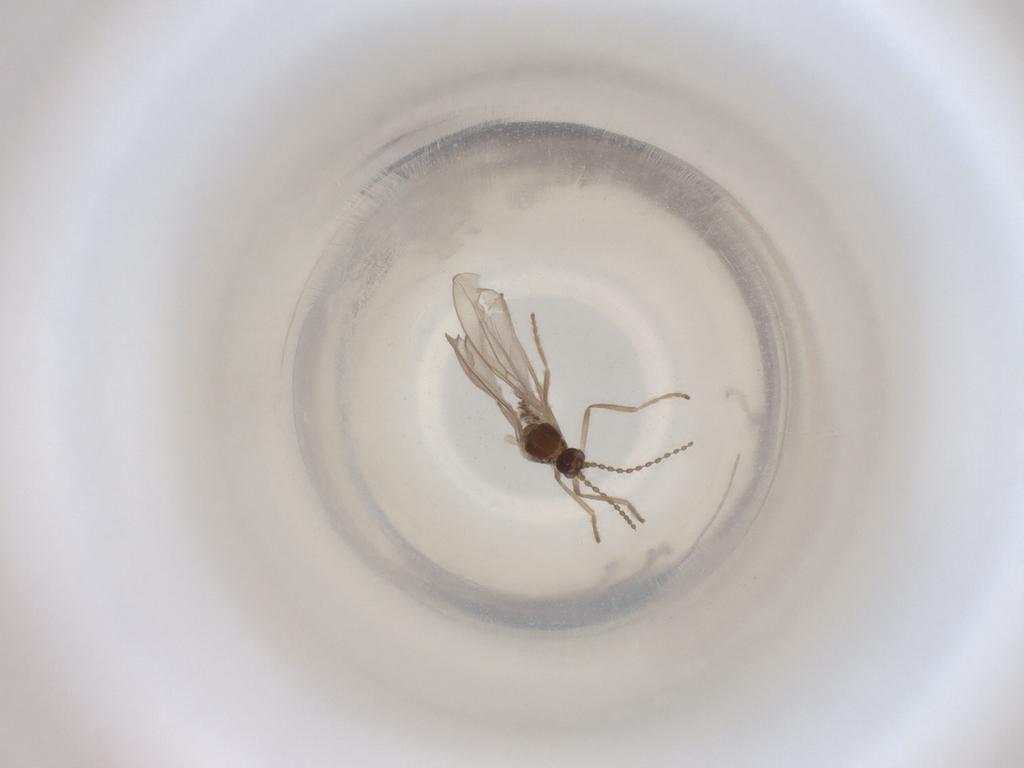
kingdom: Animalia
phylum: Arthropoda
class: Insecta
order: Diptera
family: Cecidomyiidae
